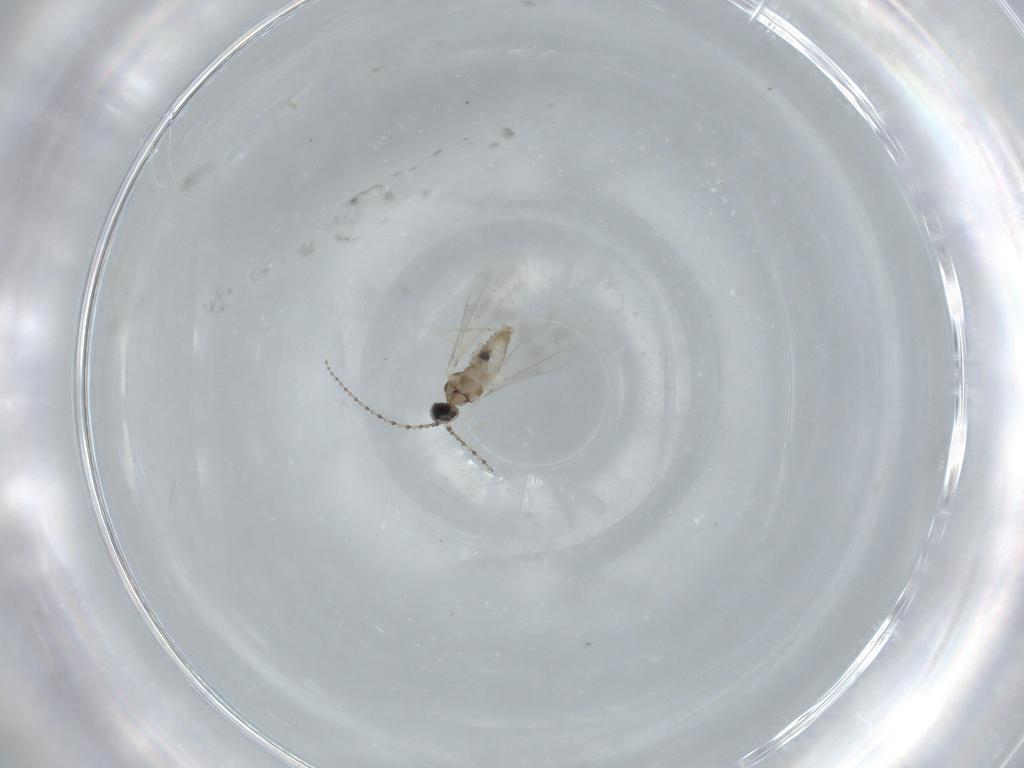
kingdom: Animalia
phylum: Arthropoda
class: Insecta
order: Diptera
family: Cecidomyiidae
